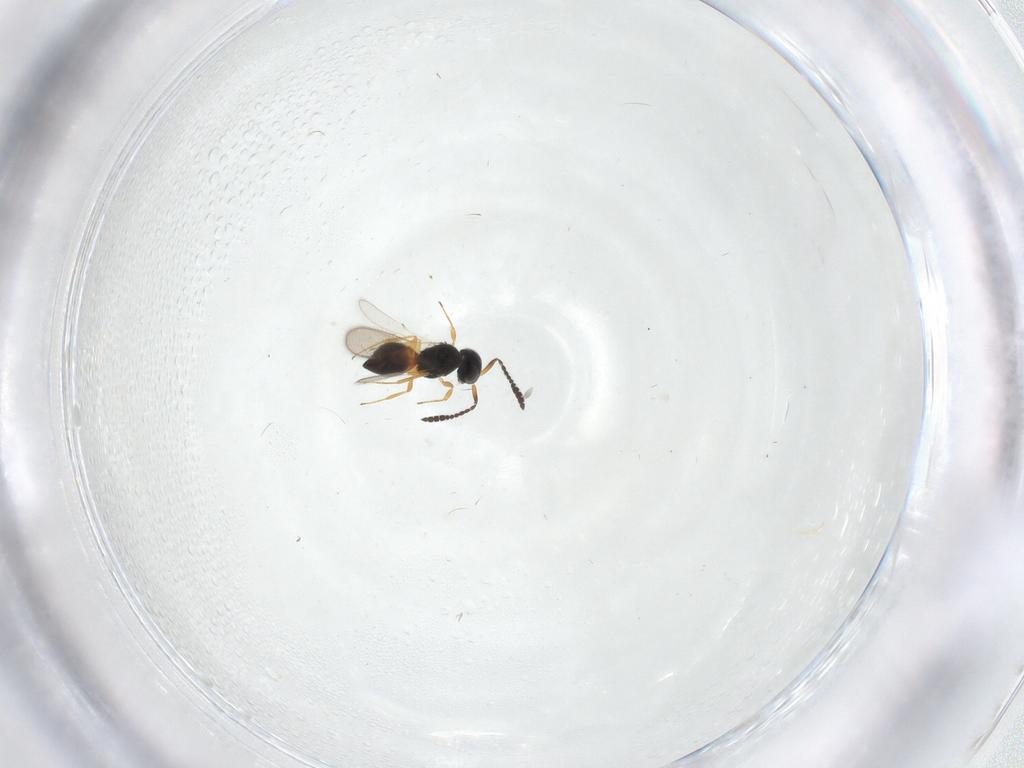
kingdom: Animalia
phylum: Arthropoda
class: Insecta
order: Hymenoptera
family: Scelionidae
